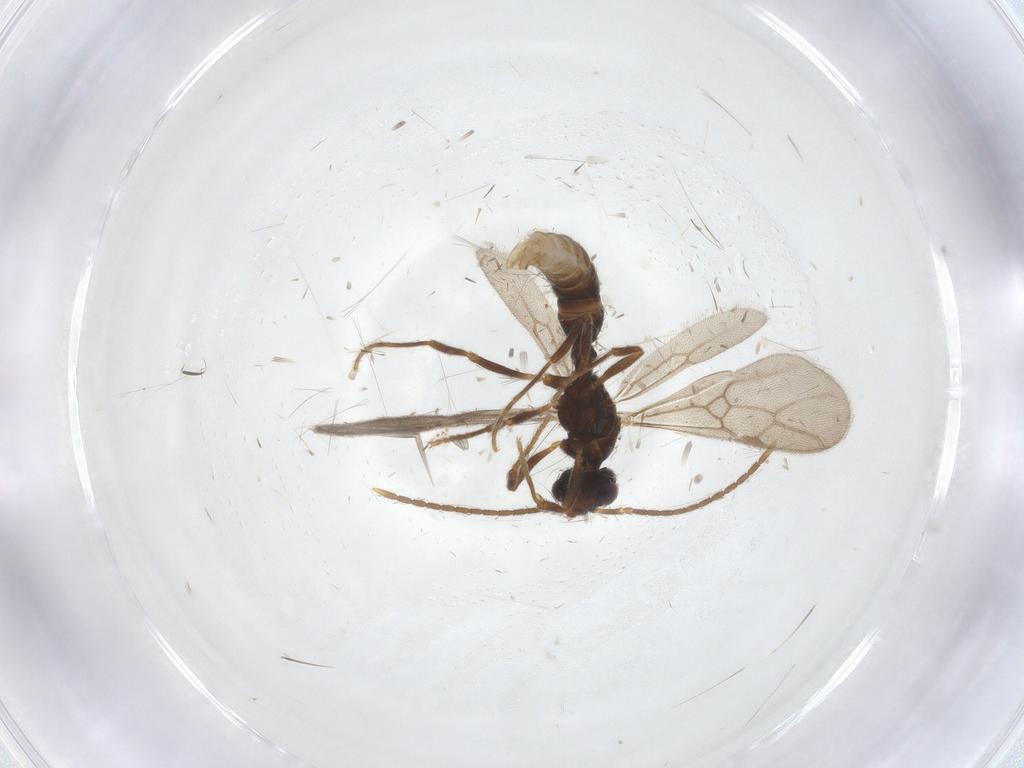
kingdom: Animalia
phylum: Arthropoda
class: Insecta
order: Hymenoptera
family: Formicidae
